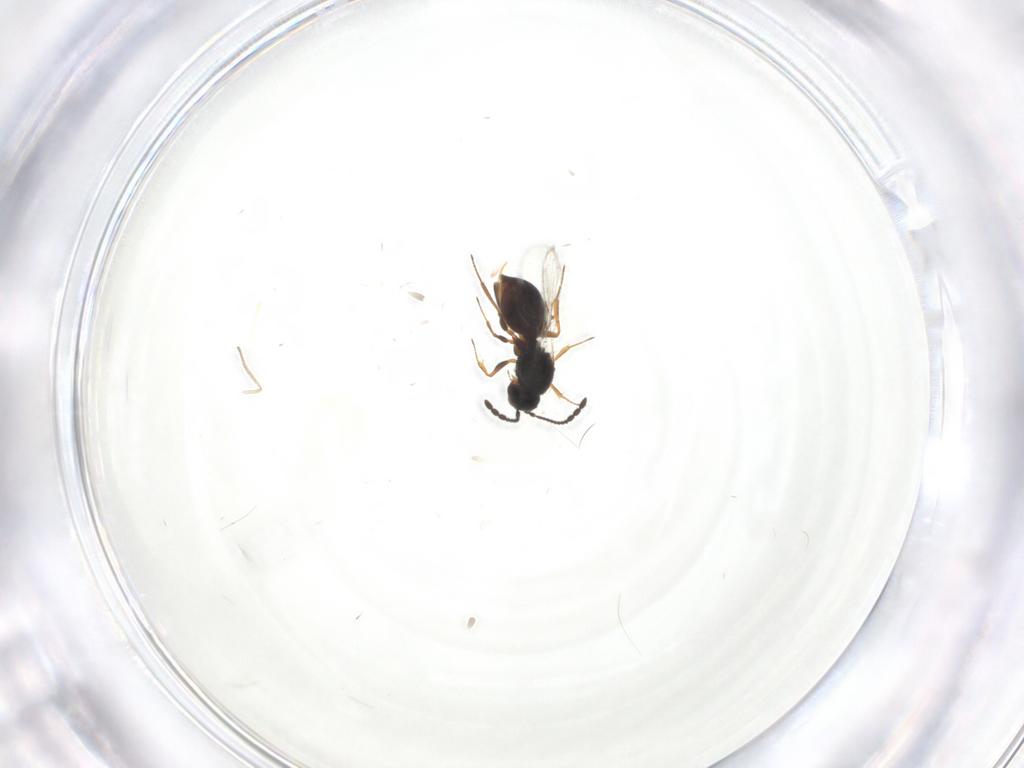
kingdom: Animalia
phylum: Arthropoda
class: Insecta
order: Hymenoptera
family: Figitidae
